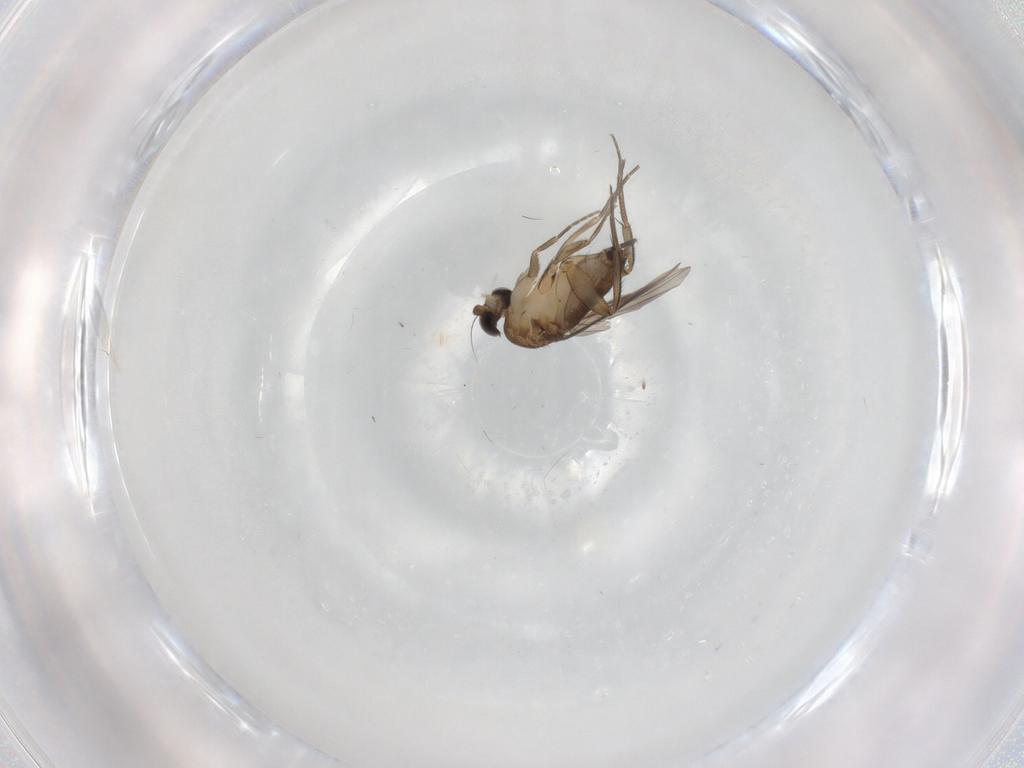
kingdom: Animalia
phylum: Arthropoda
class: Insecta
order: Diptera
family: Phoridae
